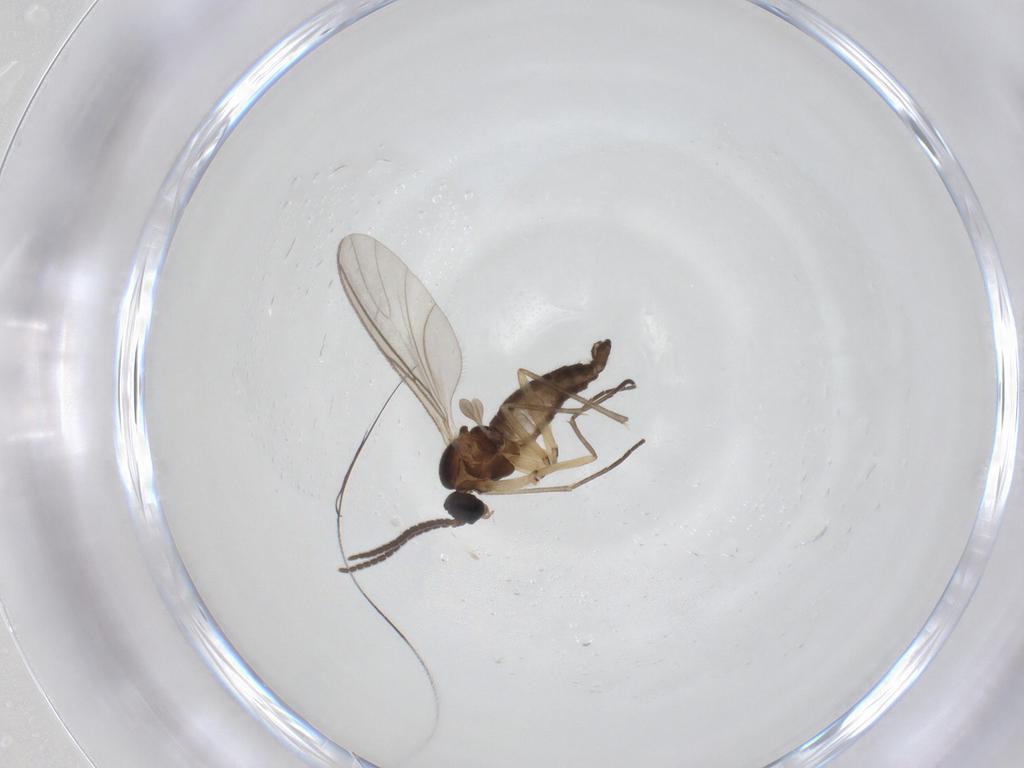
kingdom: Animalia
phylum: Arthropoda
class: Insecta
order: Diptera
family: Sciaridae
